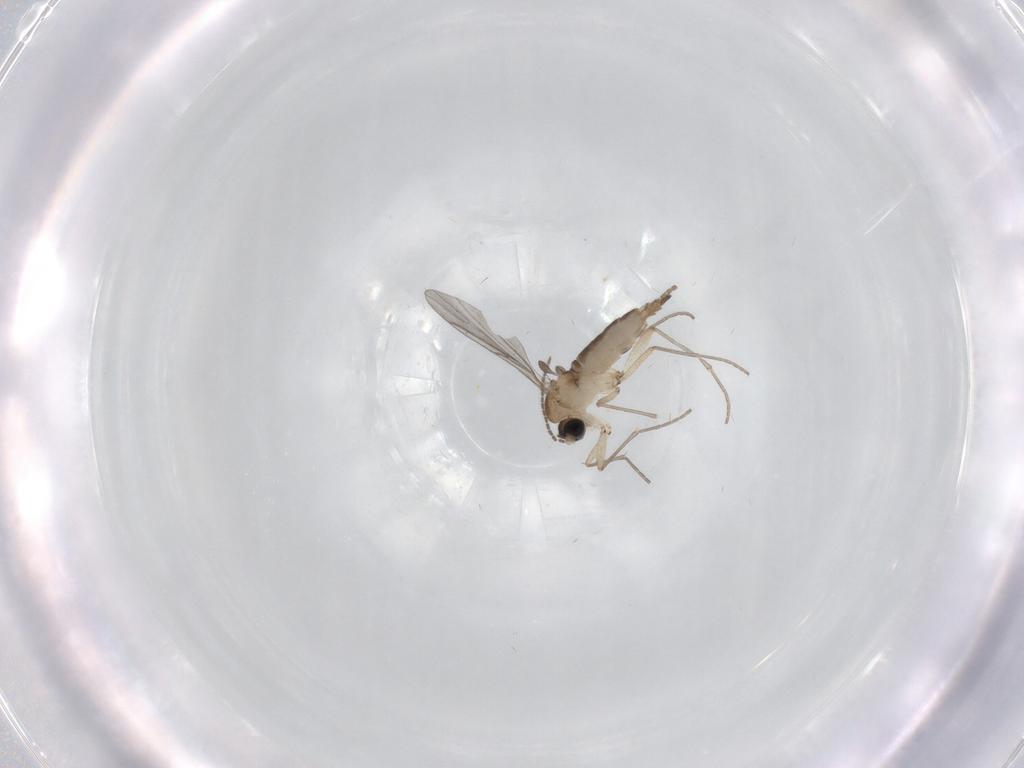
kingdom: Animalia
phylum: Arthropoda
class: Insecta
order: Diptera
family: Sciaridae
